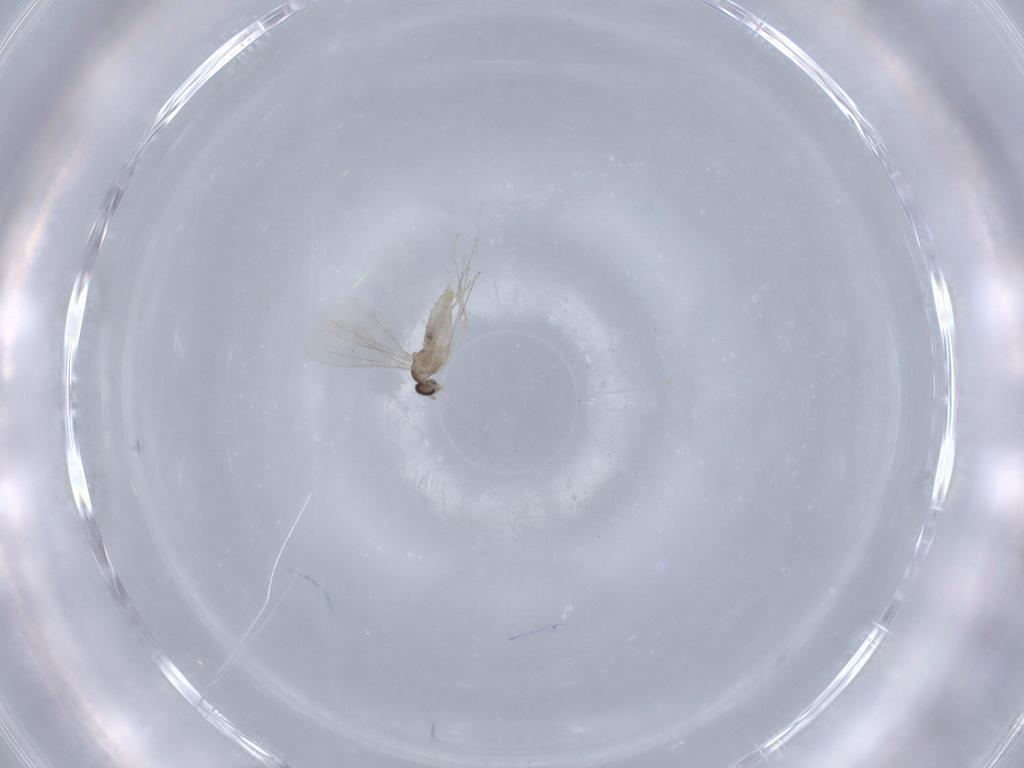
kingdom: Animalia
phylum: Arthropoda
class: Insecta
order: Diptera
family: Cecidomyiidae
